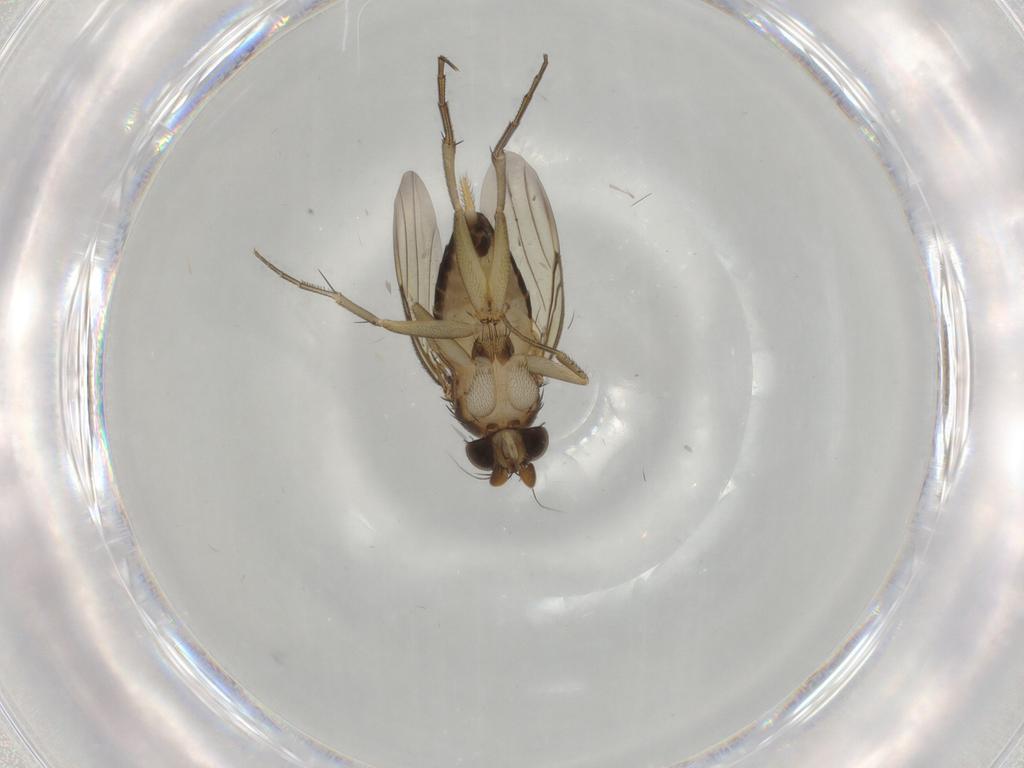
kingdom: Animalia
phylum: Arthropoda
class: Insecta
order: Diptera
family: Phoridae
